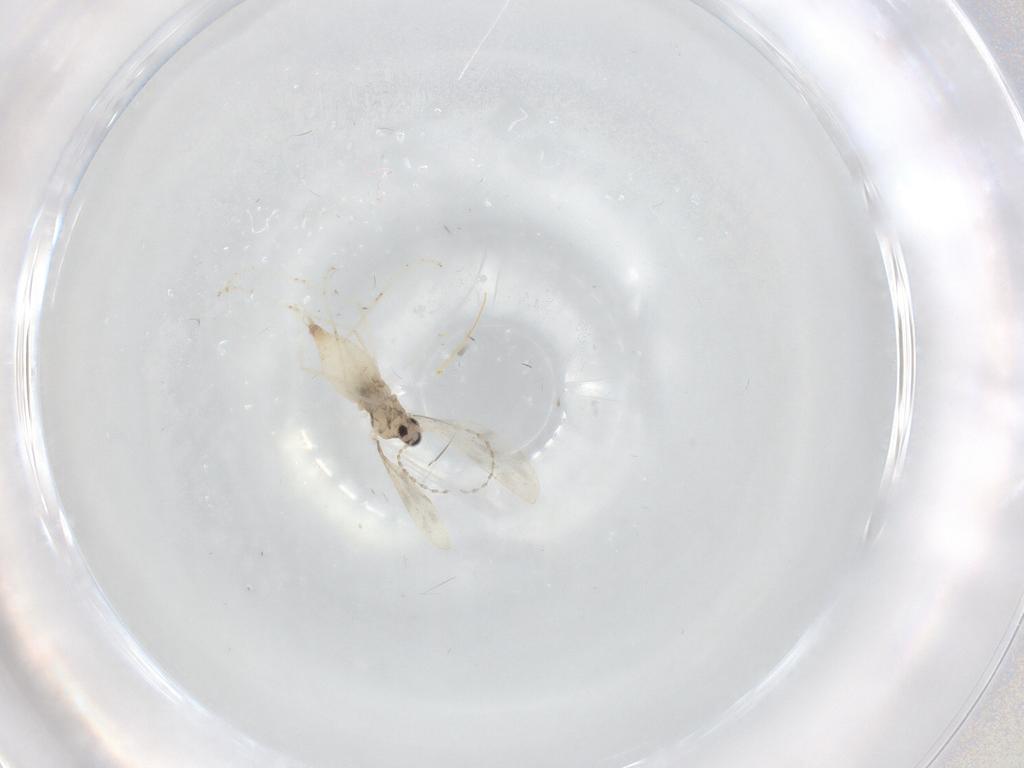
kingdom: Animalia
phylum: Arthropoda
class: Insecta
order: Diptera
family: Cecidomyiidae
